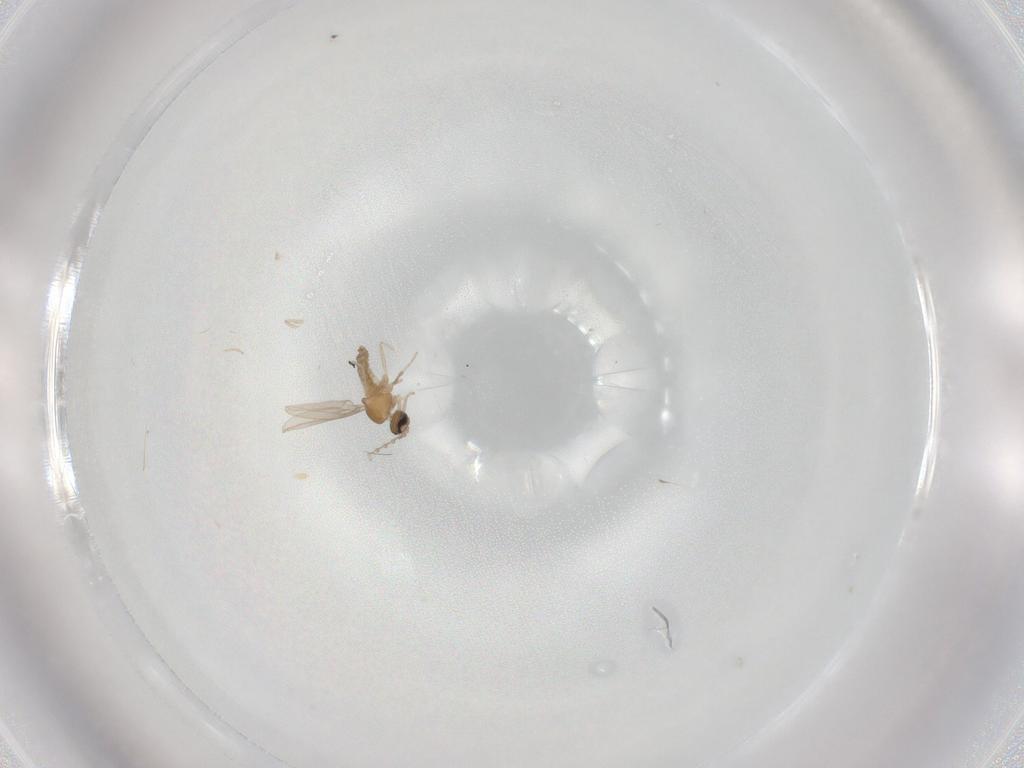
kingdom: Animalia
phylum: Arthropoda
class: Insecta
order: Diptera
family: Cecidomyiidae
